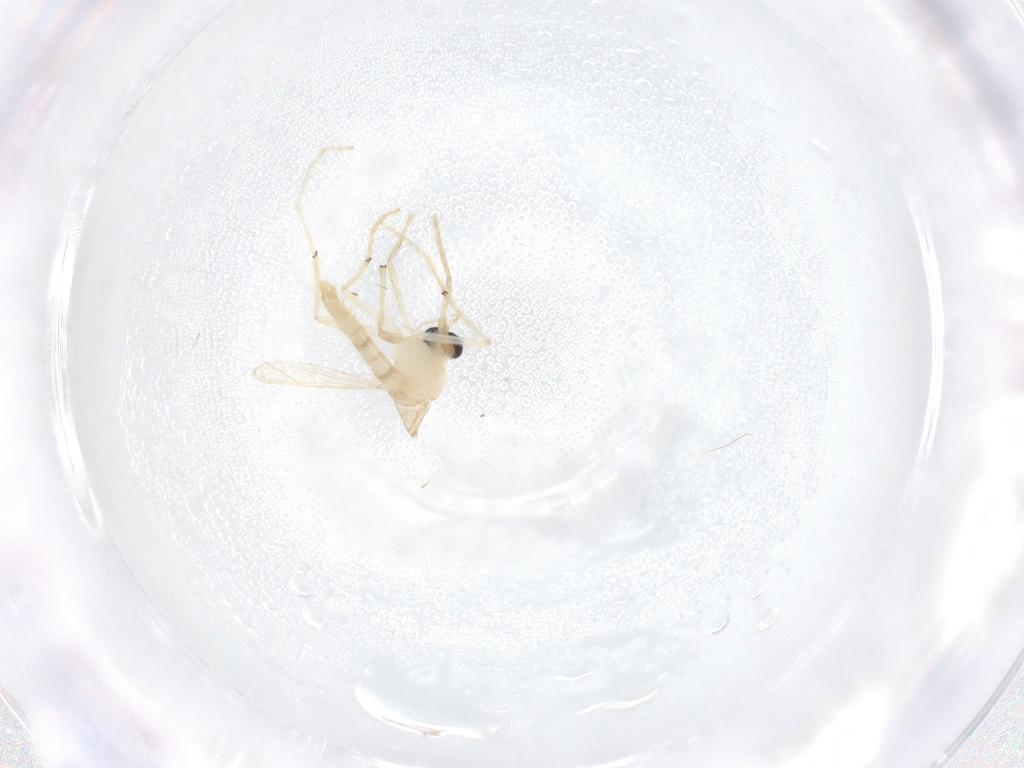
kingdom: Animalia
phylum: Arthropoda
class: Insecta
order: Diptera
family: Chironomidae
